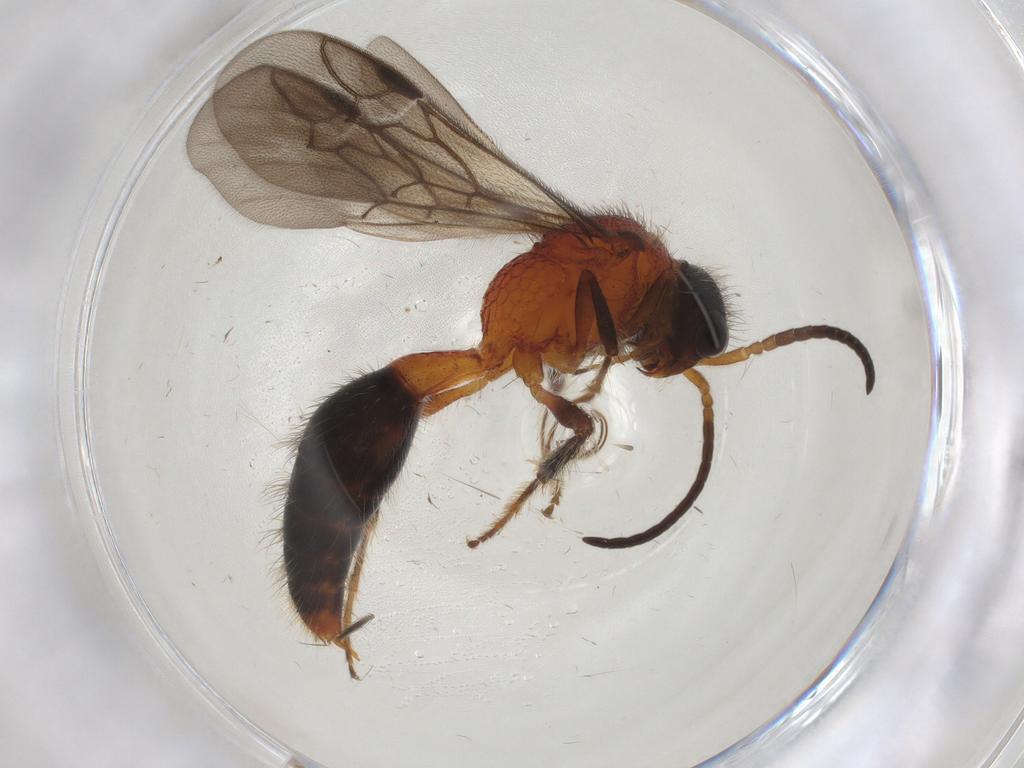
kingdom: Animalia
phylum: Arthropoda
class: Insecta
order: Hymenoptera
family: Mutillidae
